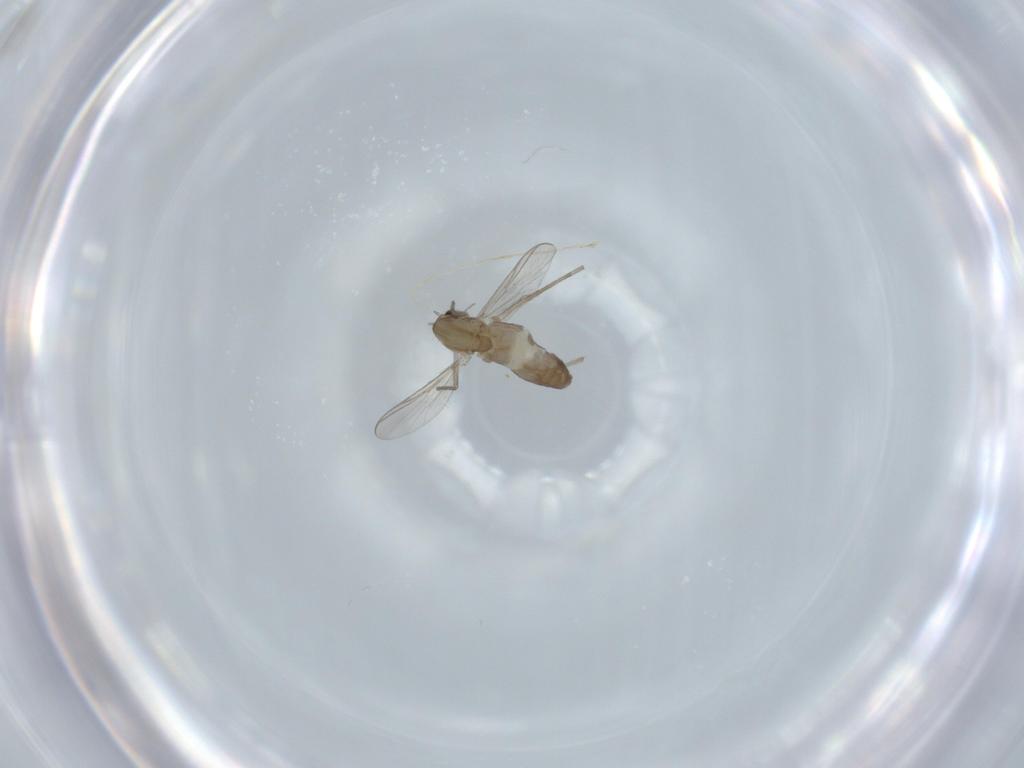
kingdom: Animalia
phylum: Arthropoda
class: Insecta
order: Diptera
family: Chironomidae
